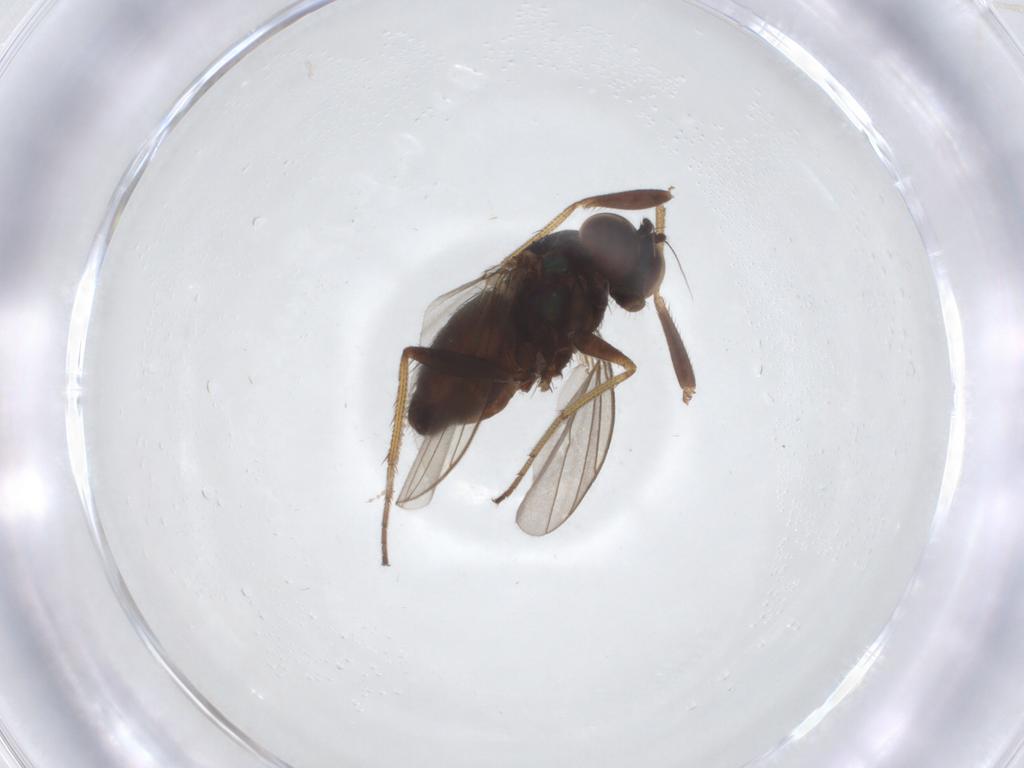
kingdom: Animalia
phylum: Arthropoda
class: Insecta
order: Diptera
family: Dolichopodidae
